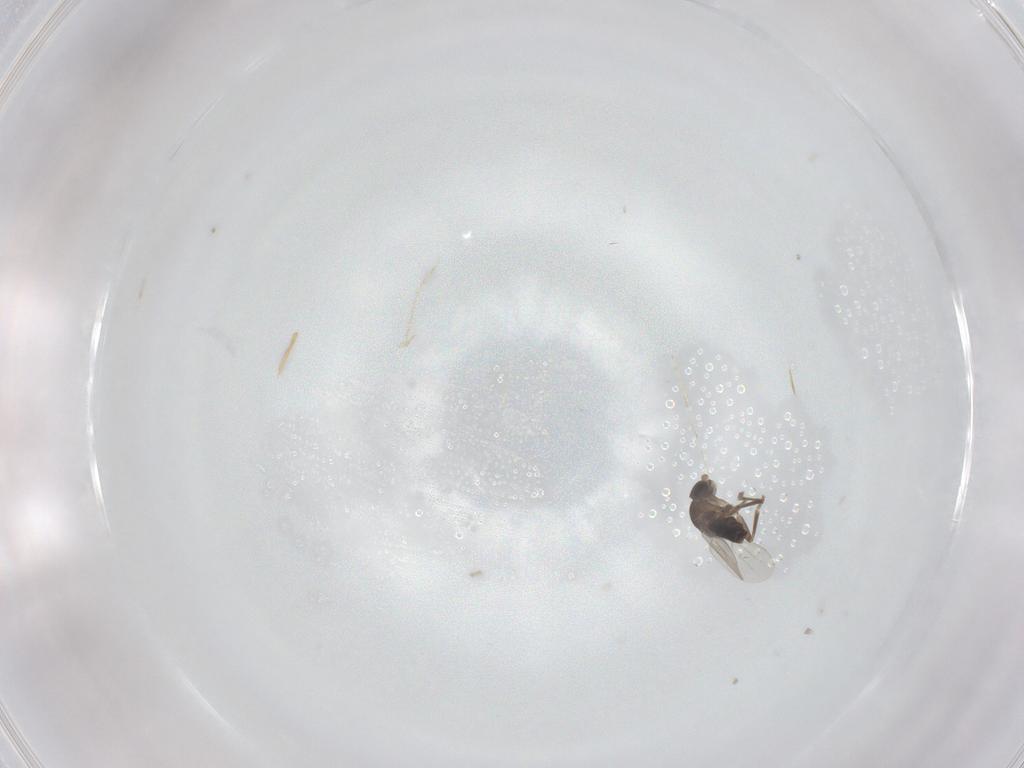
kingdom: Animalia
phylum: Arthropoda
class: Insecta
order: Diptera
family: Phoridae
